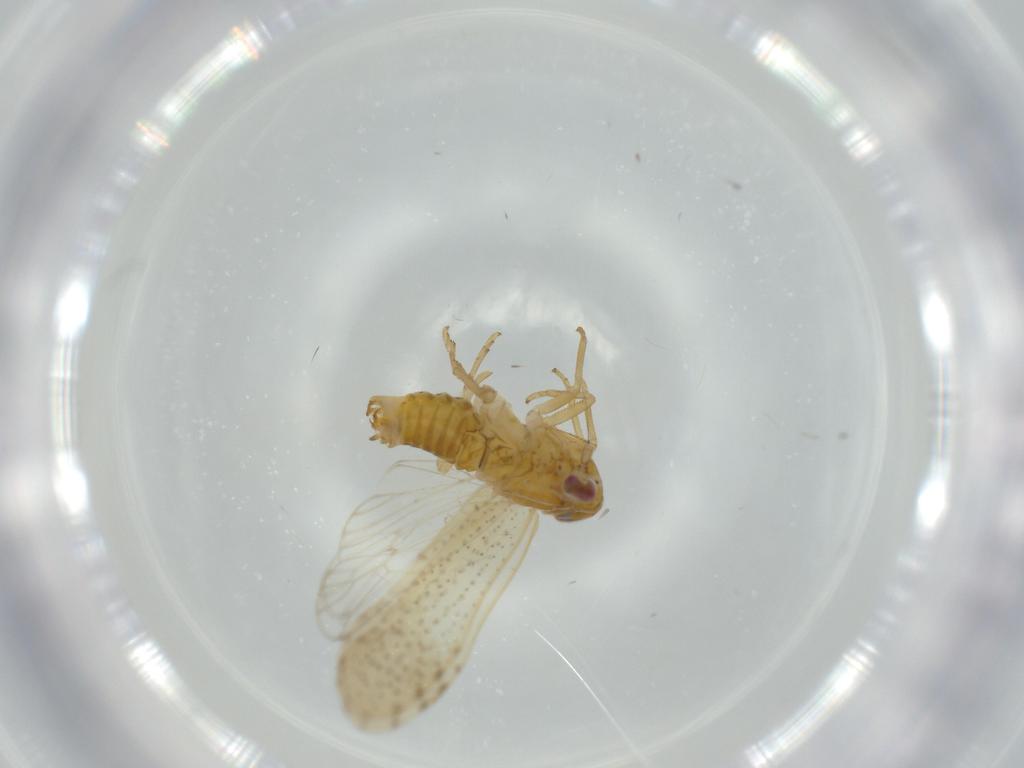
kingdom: Animalia
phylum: Arthropoda
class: Insecta
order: Hemiptera
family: Delphacidae
